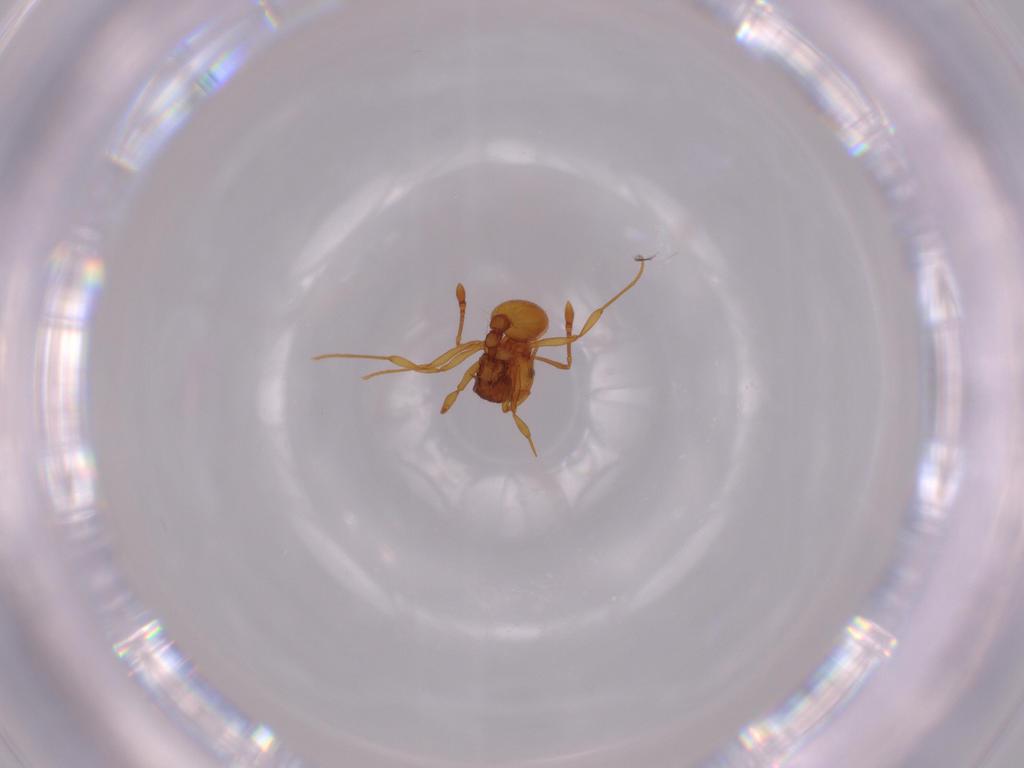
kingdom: Animalia
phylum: Arthropoda
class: Insecta
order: Hymenoptera
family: Formicidae
